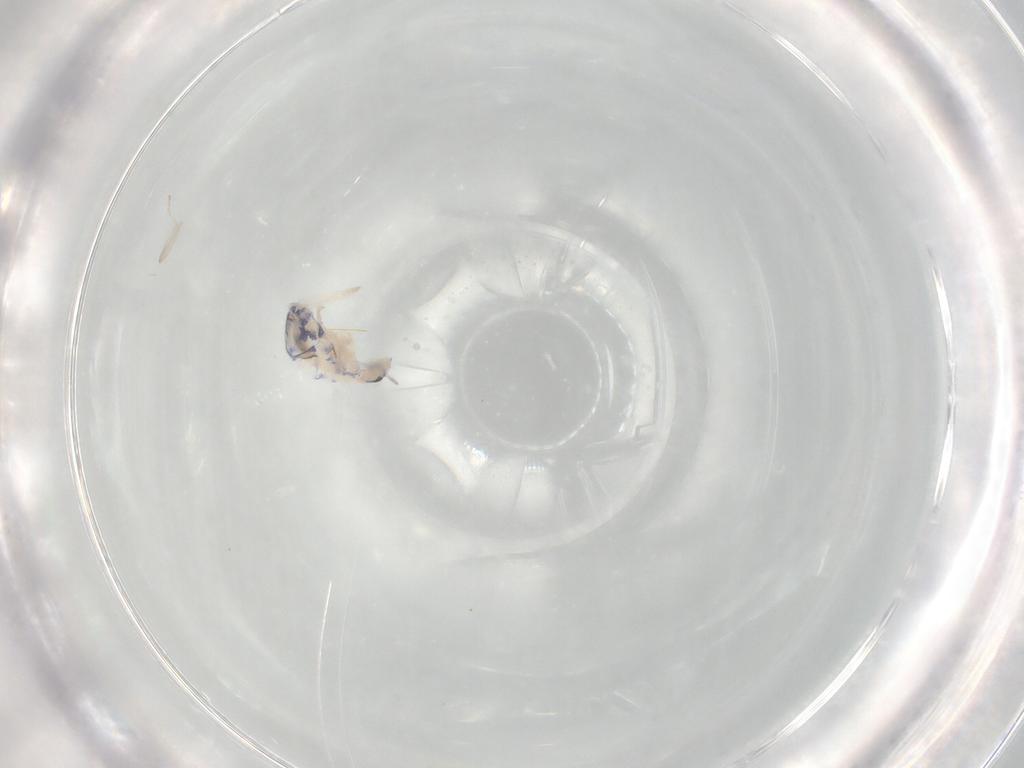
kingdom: Animalia
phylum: Arthropoda
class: Collembola
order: Entomobryomorpha
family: Entomobryidae
